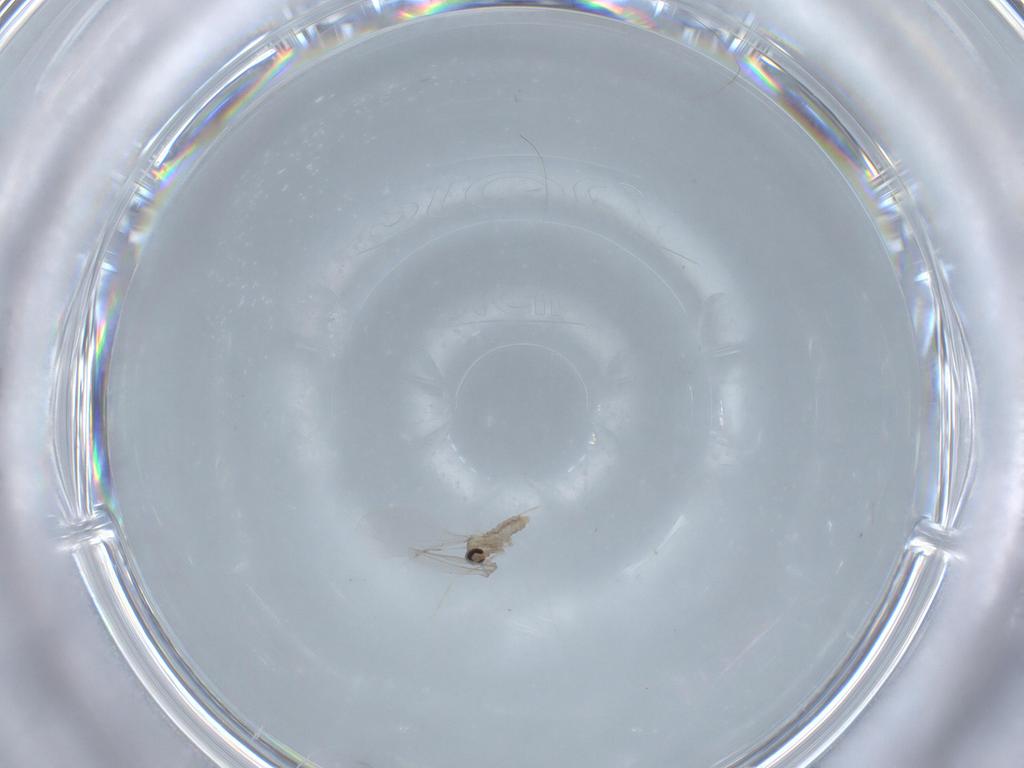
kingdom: Animalia
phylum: Arthropoda
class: Insecta
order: Diptera
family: Cecidomyiidae
